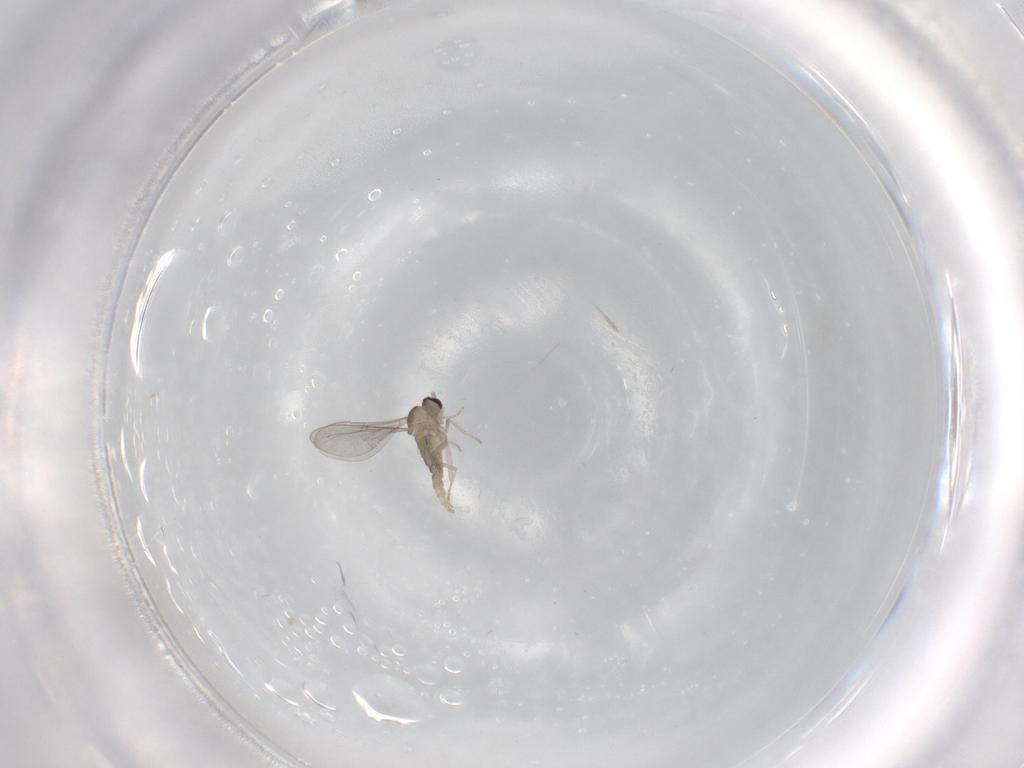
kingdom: Animalia
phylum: Arthropoda
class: Insecta
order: Diptera
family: Cecidomyiidae
